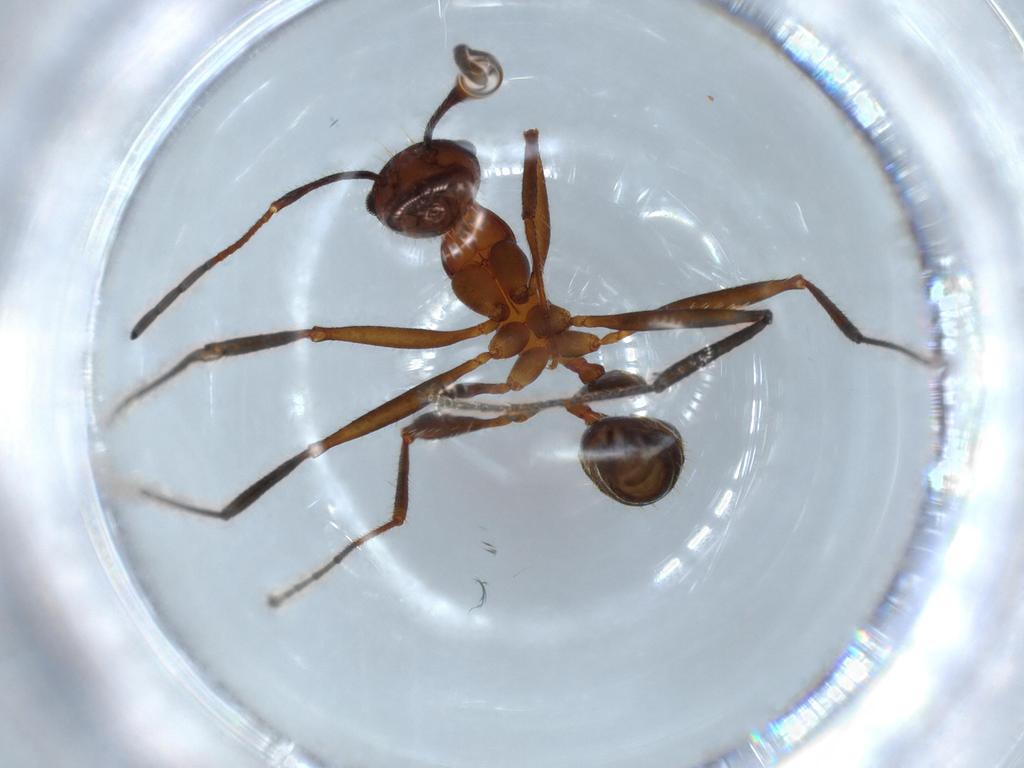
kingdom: Animalia
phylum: Arthropoda
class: Insecta
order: Hymenoptera
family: Formicidae
